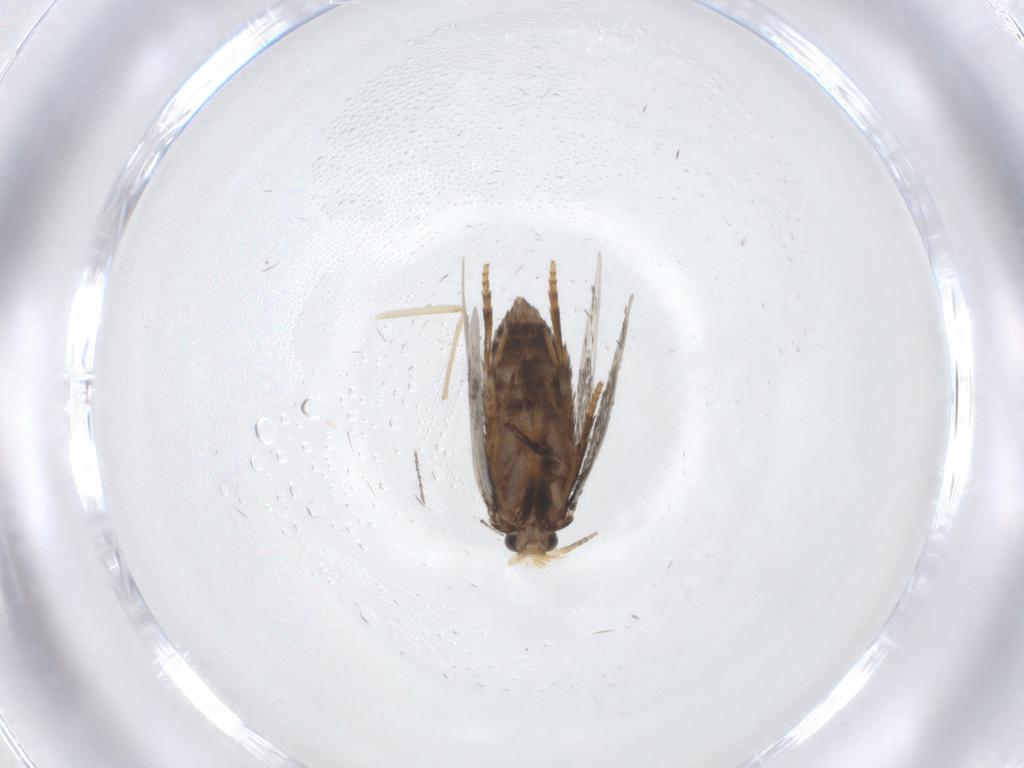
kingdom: Animalia
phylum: Arthropoda
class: Insecta
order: Lepidoptera
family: Nepticulidae
